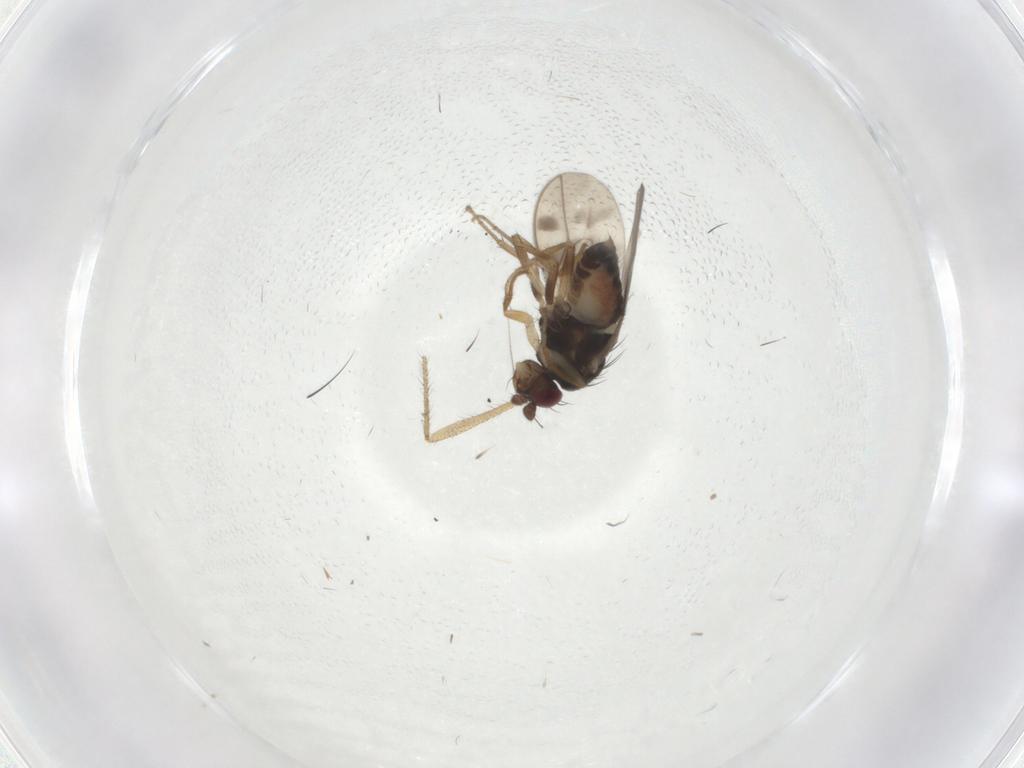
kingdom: Animalia
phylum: Arthropoda
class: Insecta
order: Diptera
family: Sphaeroceridae
